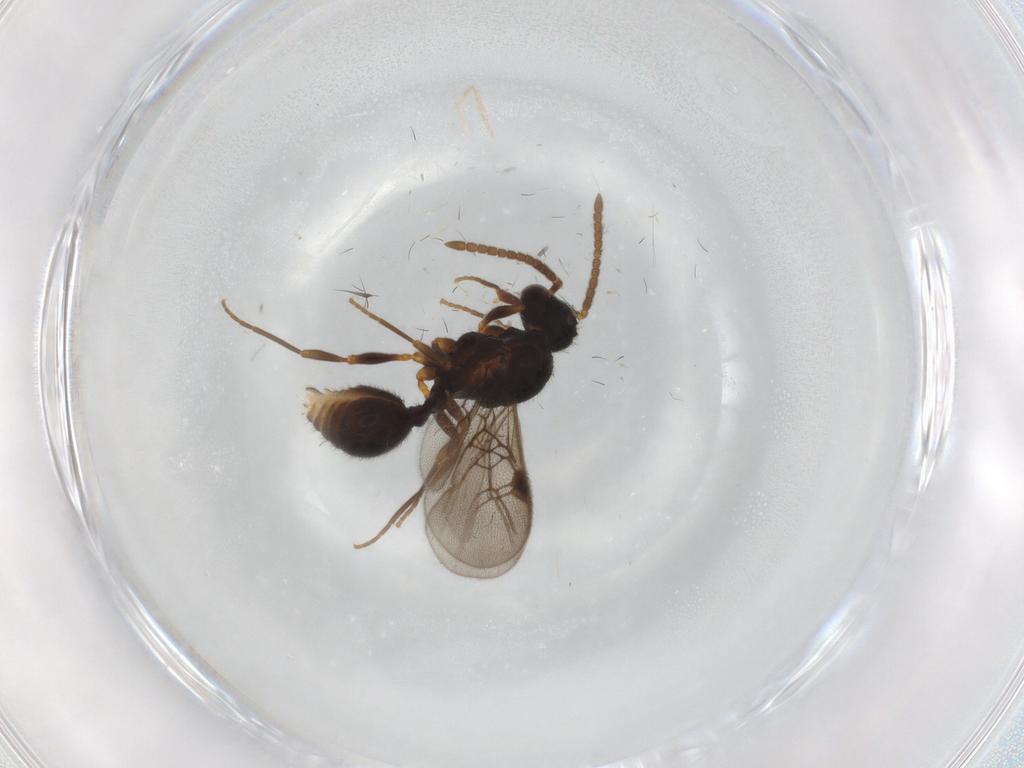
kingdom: Animalia
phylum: Arthropoda
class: Insecta
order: Hymenoptera
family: Formicidae
